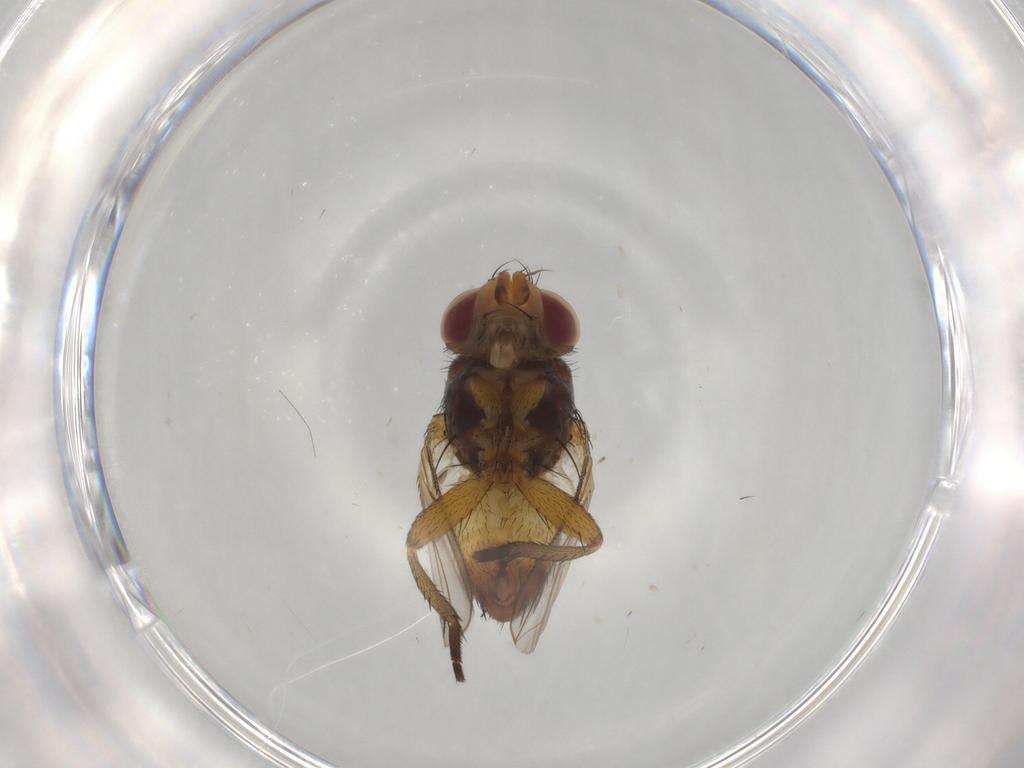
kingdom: Animalia
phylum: Arthropoda
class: Insecta
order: Diptera
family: Tachinidae
